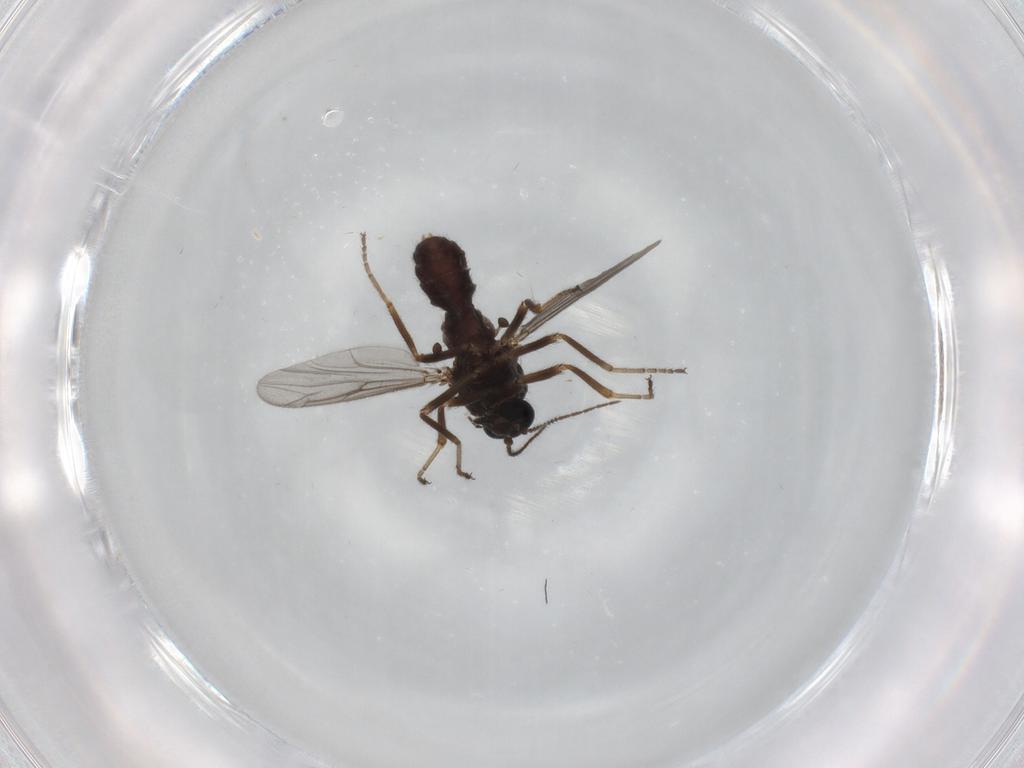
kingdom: Animalia
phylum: Arthropoda
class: Insecta
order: Diptera
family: Ceratopogonidae
